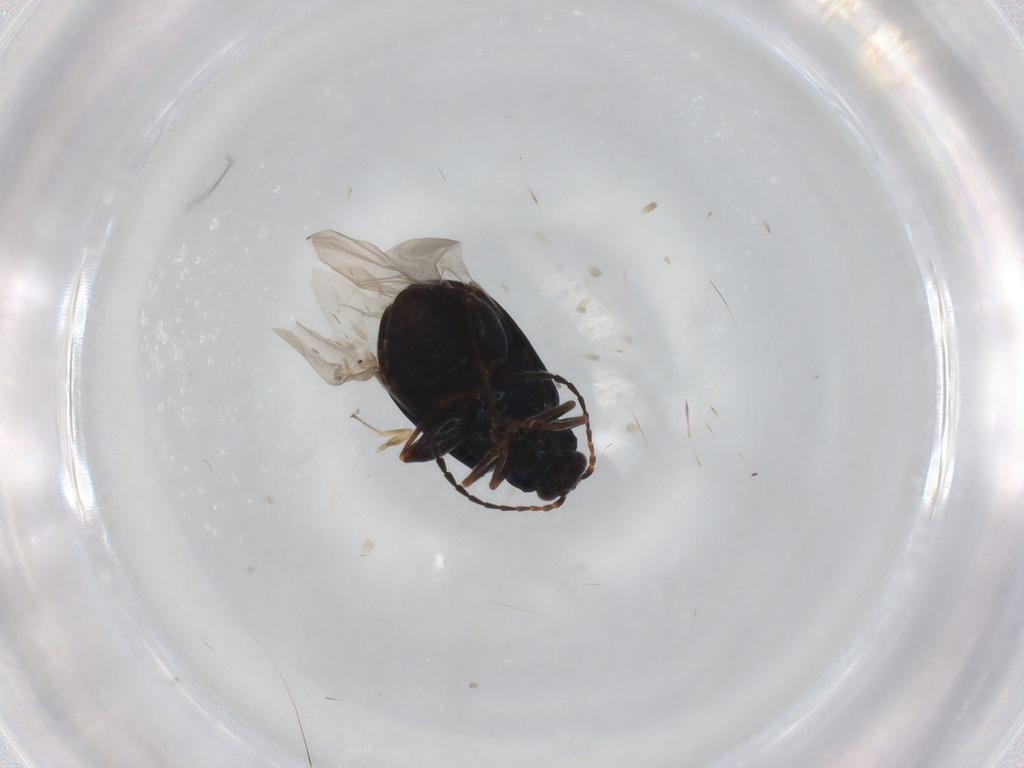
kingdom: Animalia
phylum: Arthropoda
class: Insecta
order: Coleoptera
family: Chrysomelidae
